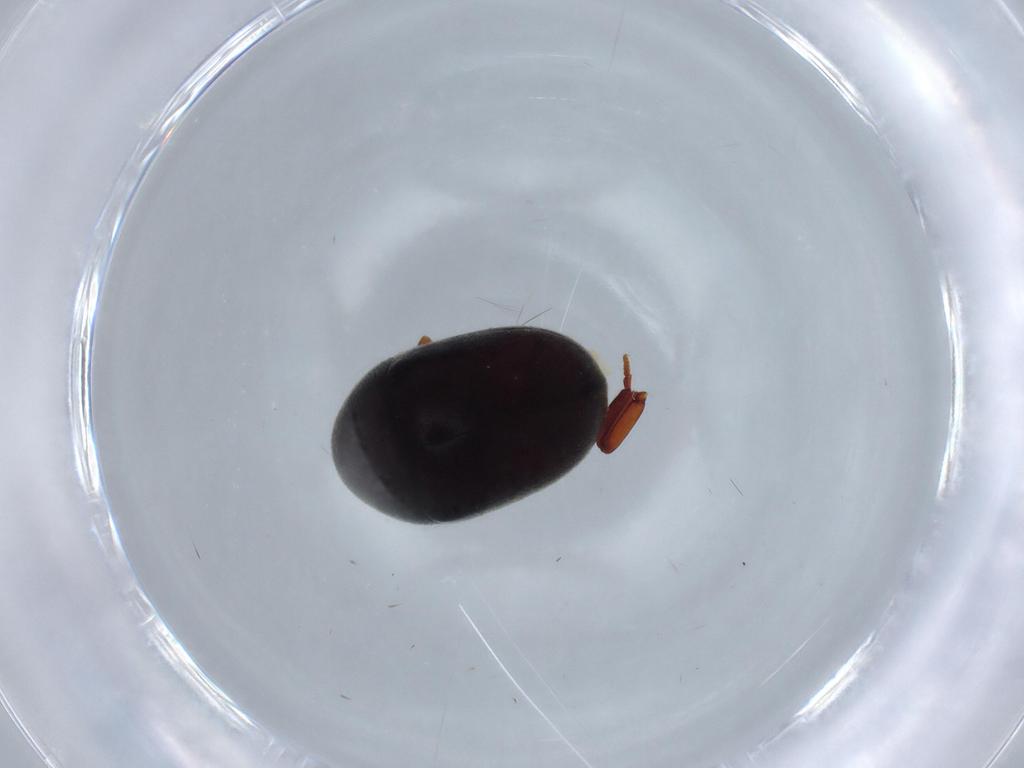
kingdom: Animalia
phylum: Arthropoda
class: Insecta
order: Coleoptera
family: Ptinidae
